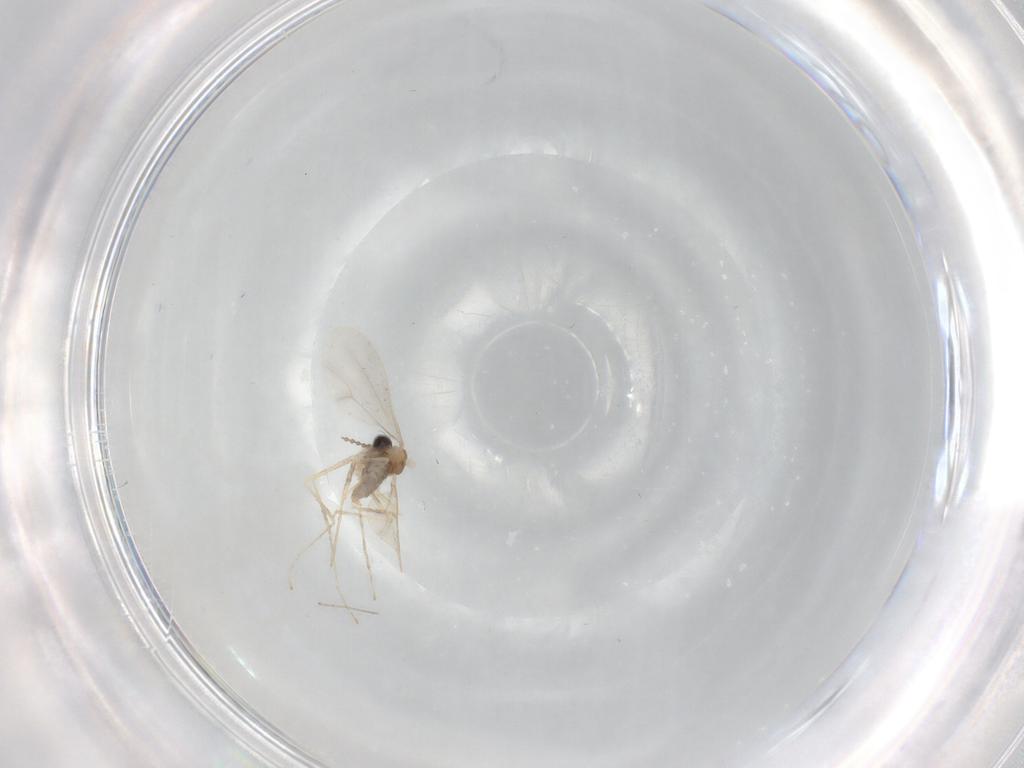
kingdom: Animalia
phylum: Arthropoda
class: Insecta
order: Diptera
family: Cecidomyiidae
